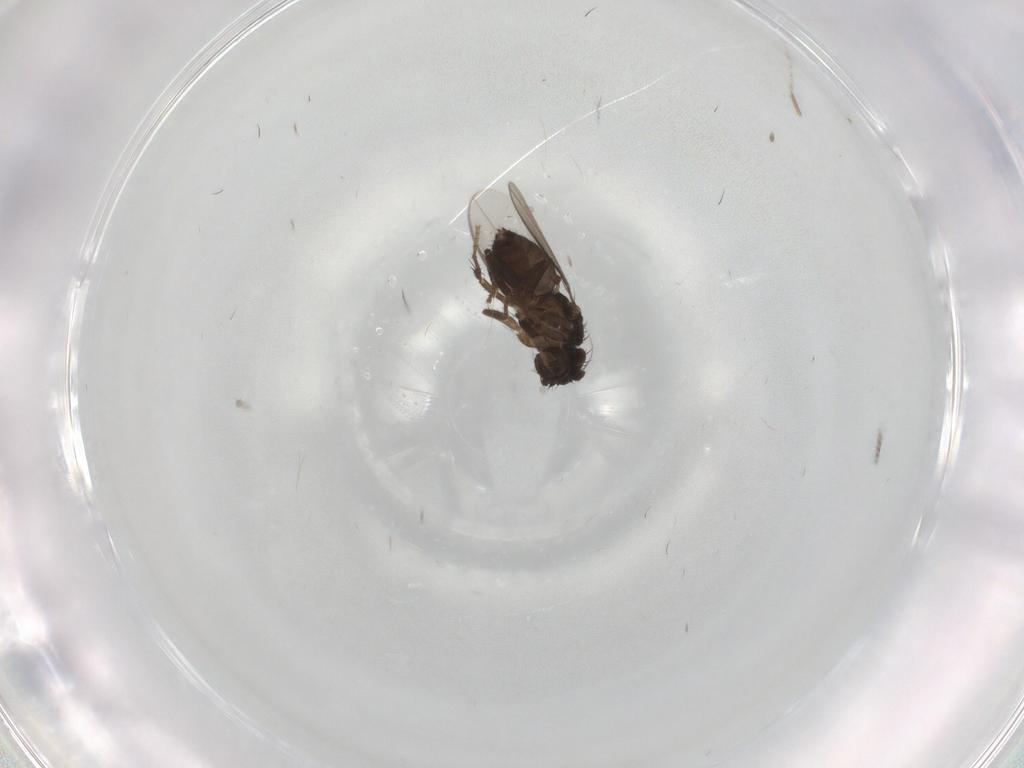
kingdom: Animalia
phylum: Arthropoda
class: Insecta
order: Diptera
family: Sphaeroceridae
